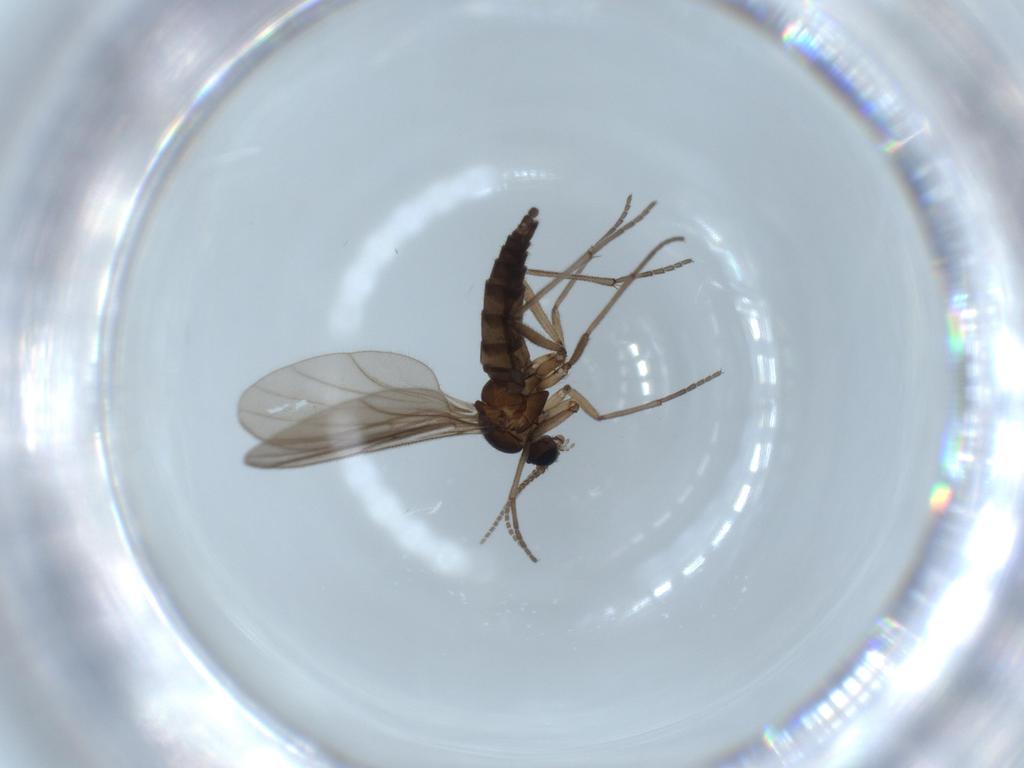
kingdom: Animalia
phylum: Arthropoda
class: Insecta
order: Diptera
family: Sciaridae
